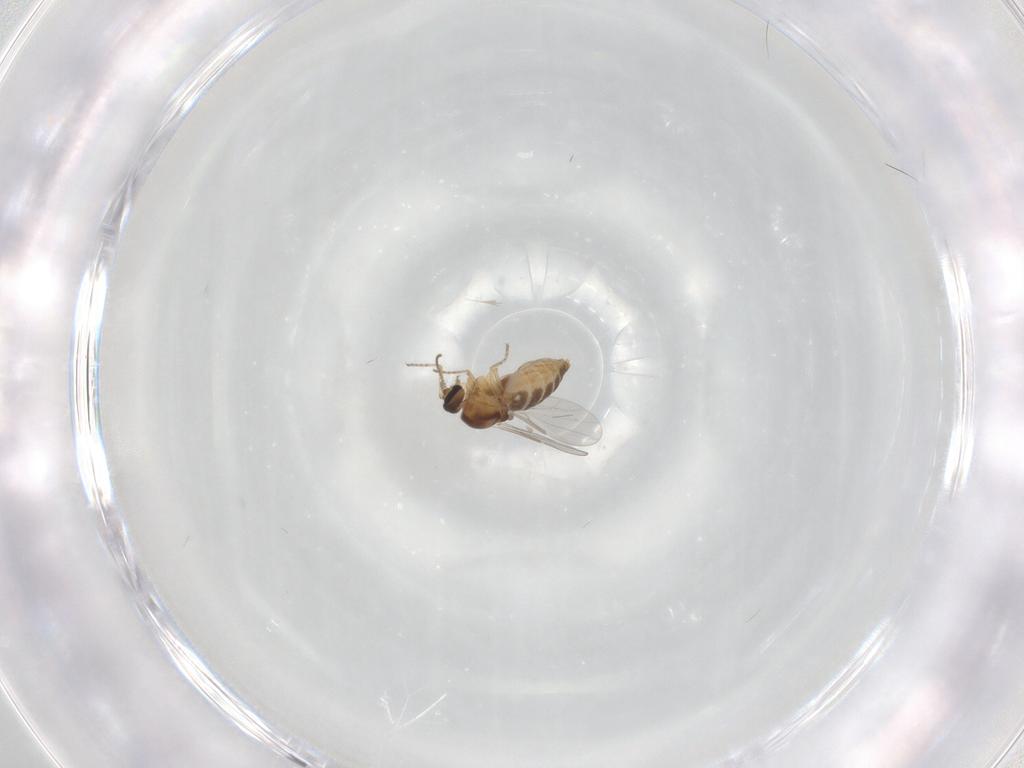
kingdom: Animalia
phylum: Arthropoda
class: Insecta
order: Diptera
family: Ceratopogonidae
